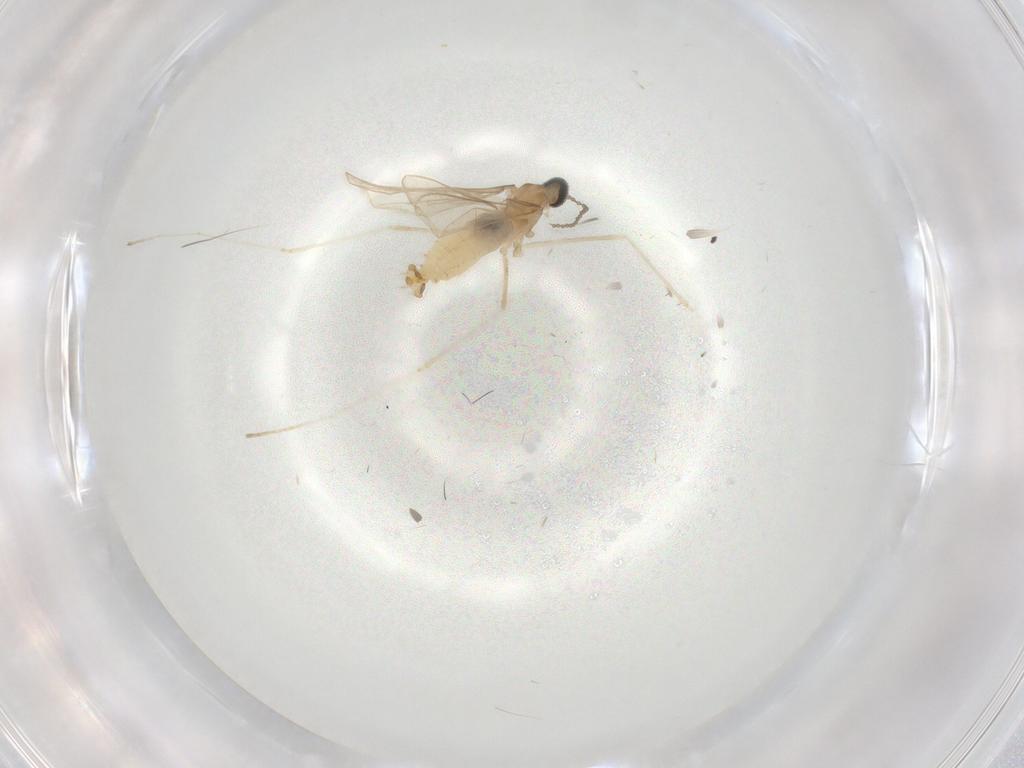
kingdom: Animalia
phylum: Arthropoda
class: Insecta
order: Diptera
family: Cecidomyiidae
